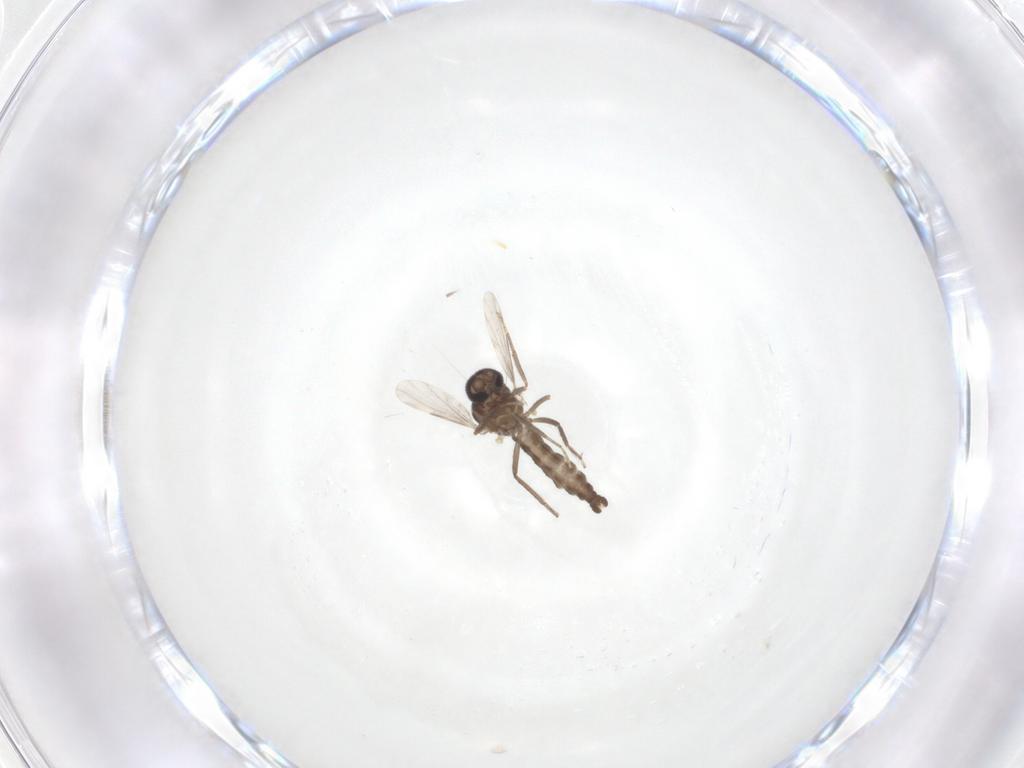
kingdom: Animalia
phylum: Arthropoda
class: Insecta
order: Diptera
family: Ceratopogonidae
